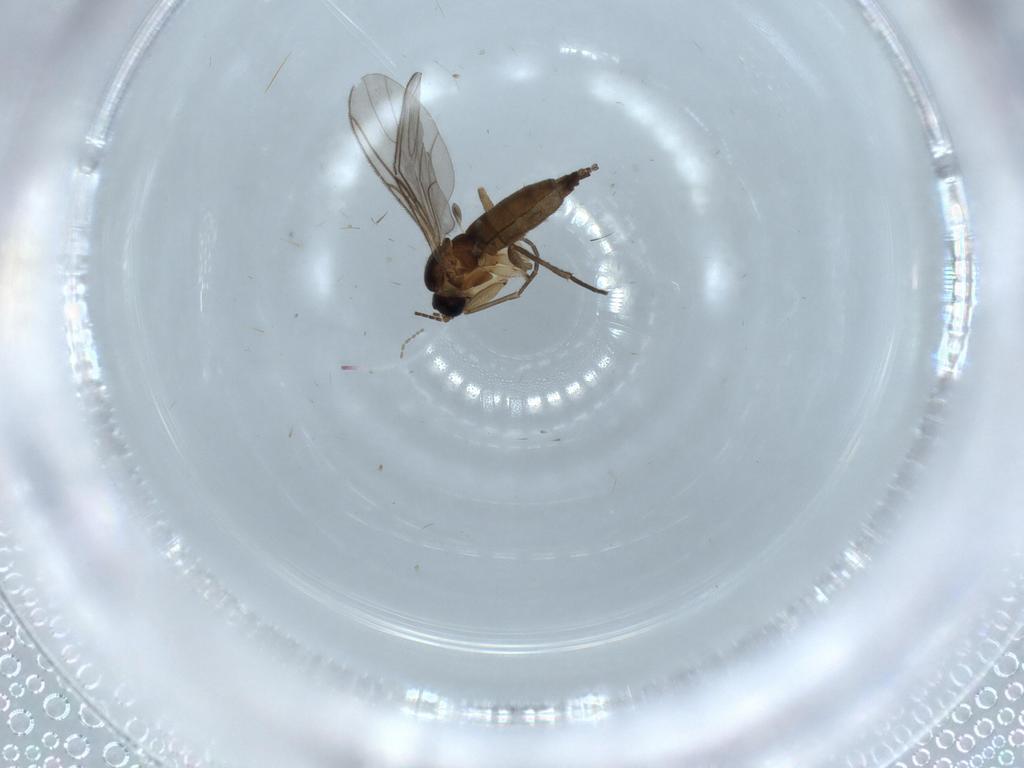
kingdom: Animalia
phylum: Arthropoda
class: Insecta
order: Diptera
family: Sciaridae
